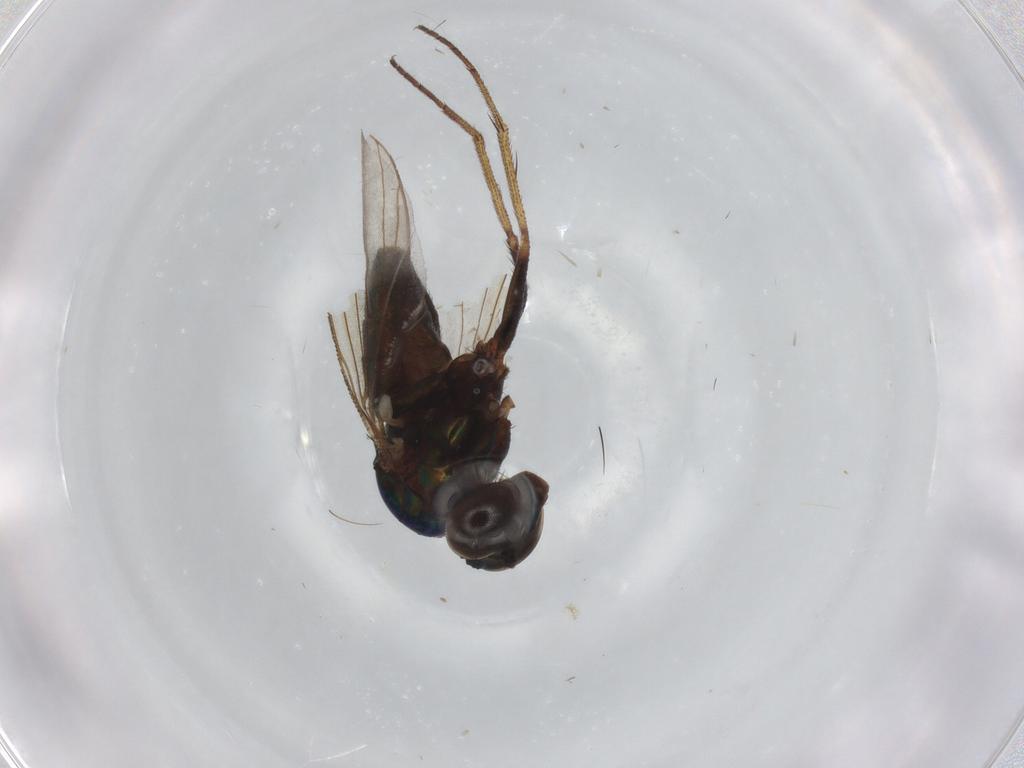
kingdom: Animalia
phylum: Arthropoda
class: Insecta
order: Diptera
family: Dolichopodidae
